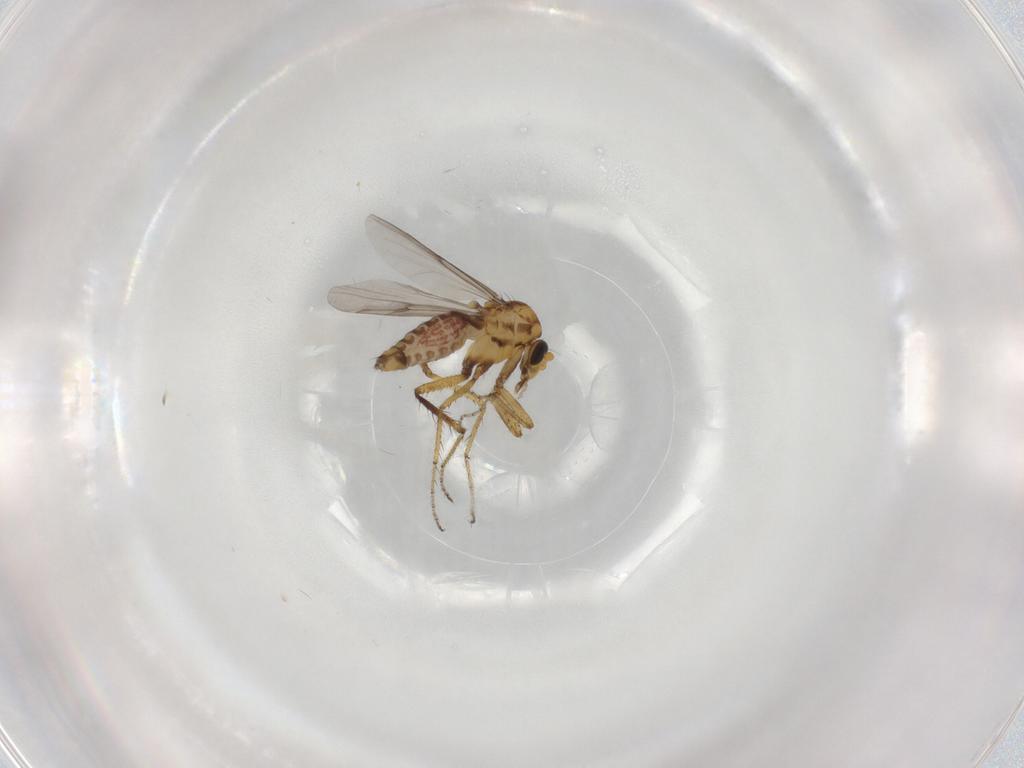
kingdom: Animalia
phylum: Arthropoda
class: Insecta
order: Diptera
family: Ceratopogonidae
